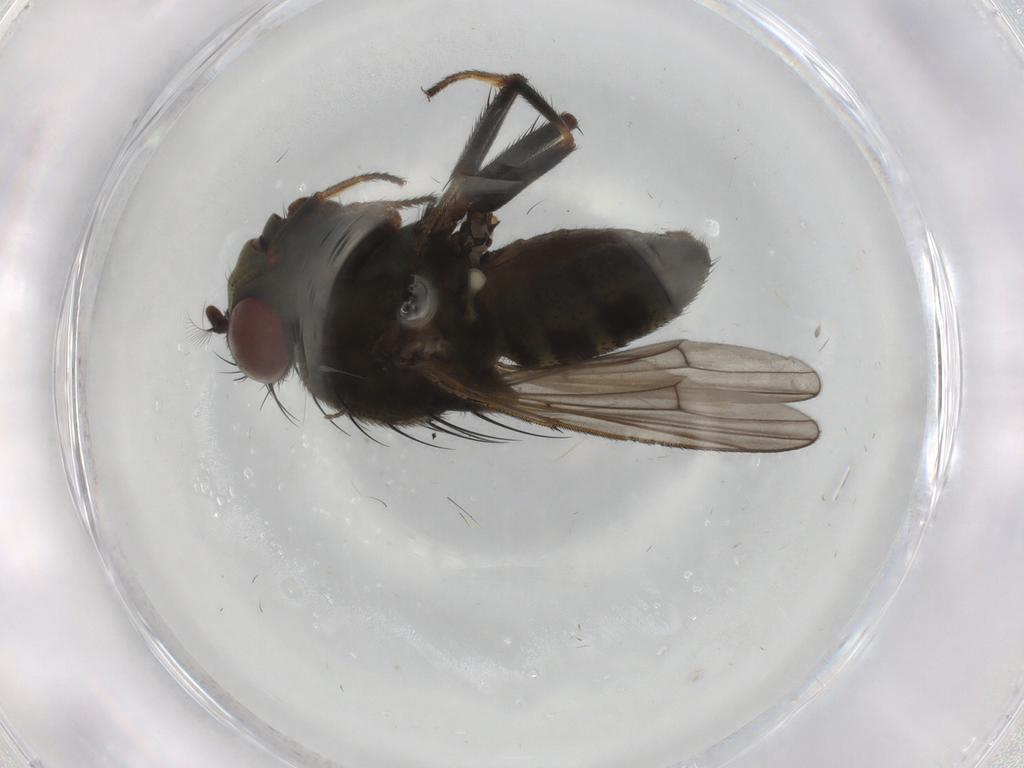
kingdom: Animalia
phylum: Arthropoda
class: Insecta
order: Diptera
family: Ephydridae
